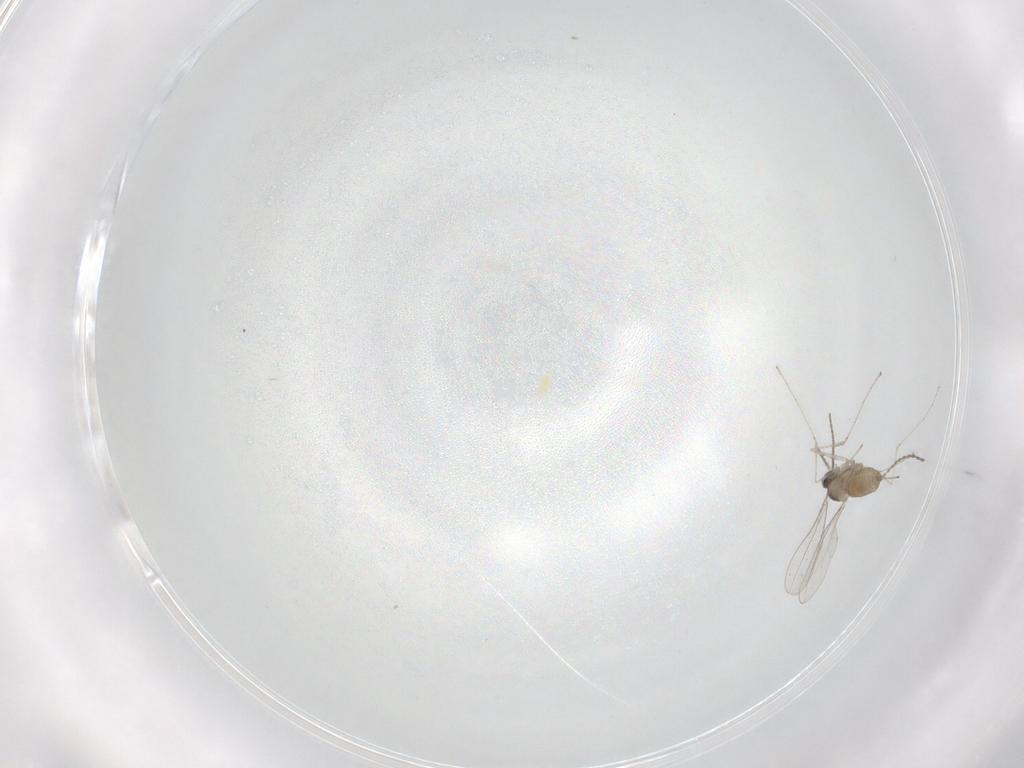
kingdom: Animalia
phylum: Arthropoda
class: Insecta
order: Diptera
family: Cecidomyiidae
